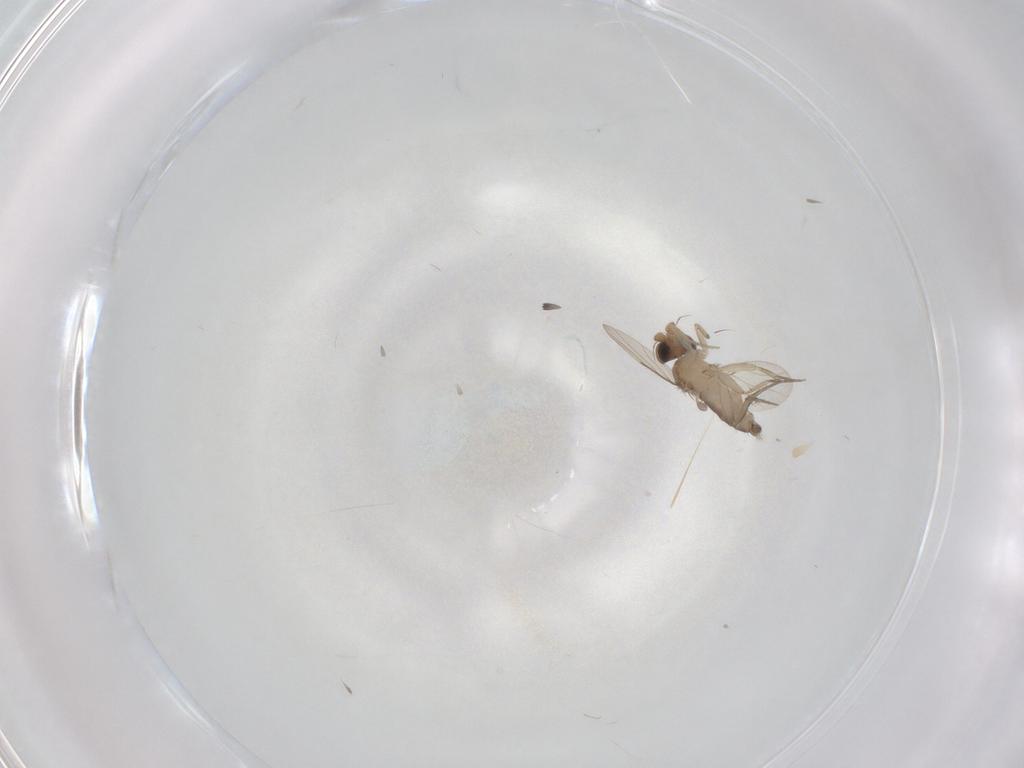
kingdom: Animalia
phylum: Arthropoda
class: Insecta
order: Diptera
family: Phoridae
